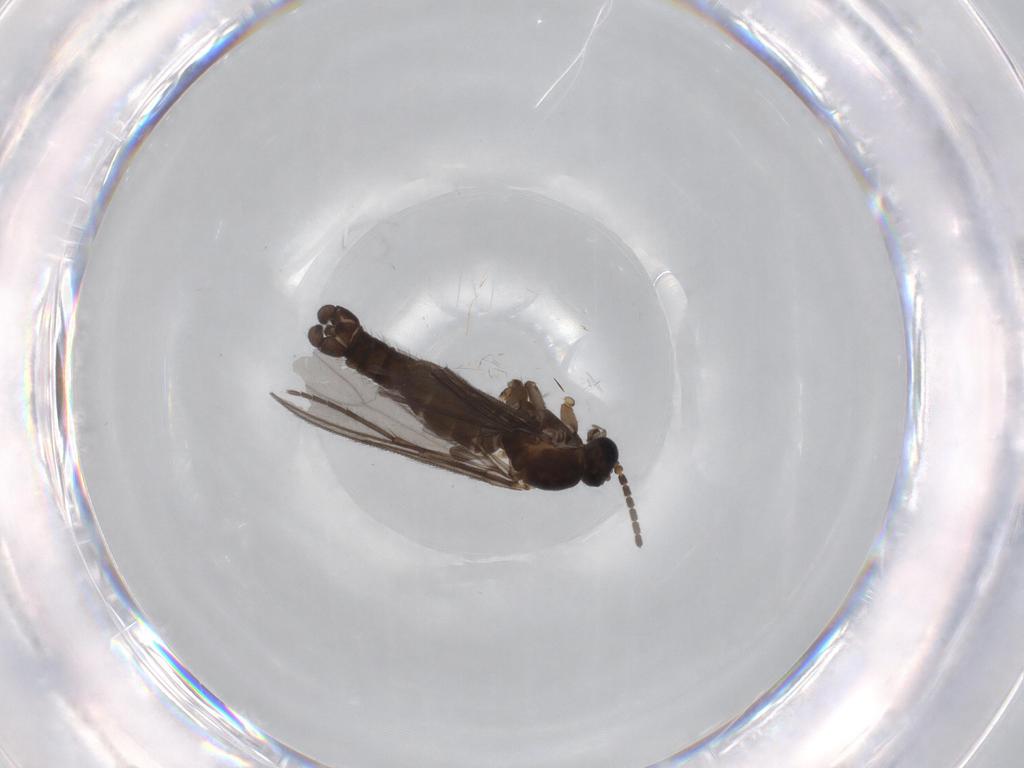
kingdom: Animalia
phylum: Arthropoda
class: Insecta
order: Diptera
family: Sciaridae
